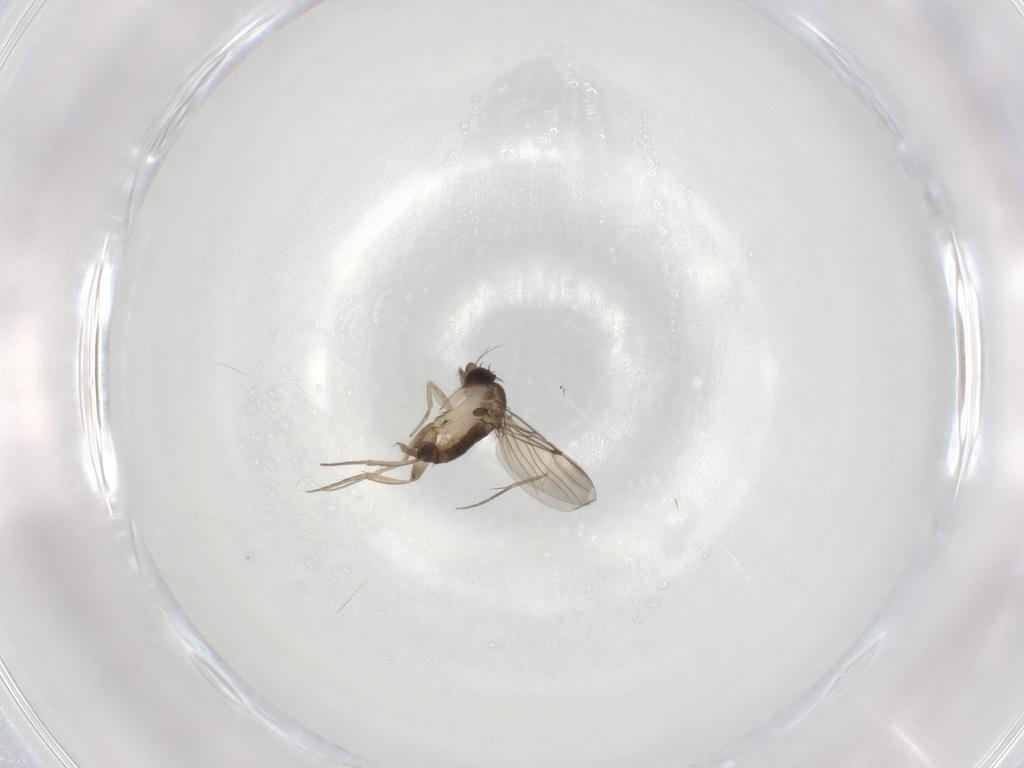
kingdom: Animalia
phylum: Arthropoda
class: Insecta
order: Diptera
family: Phoridae
